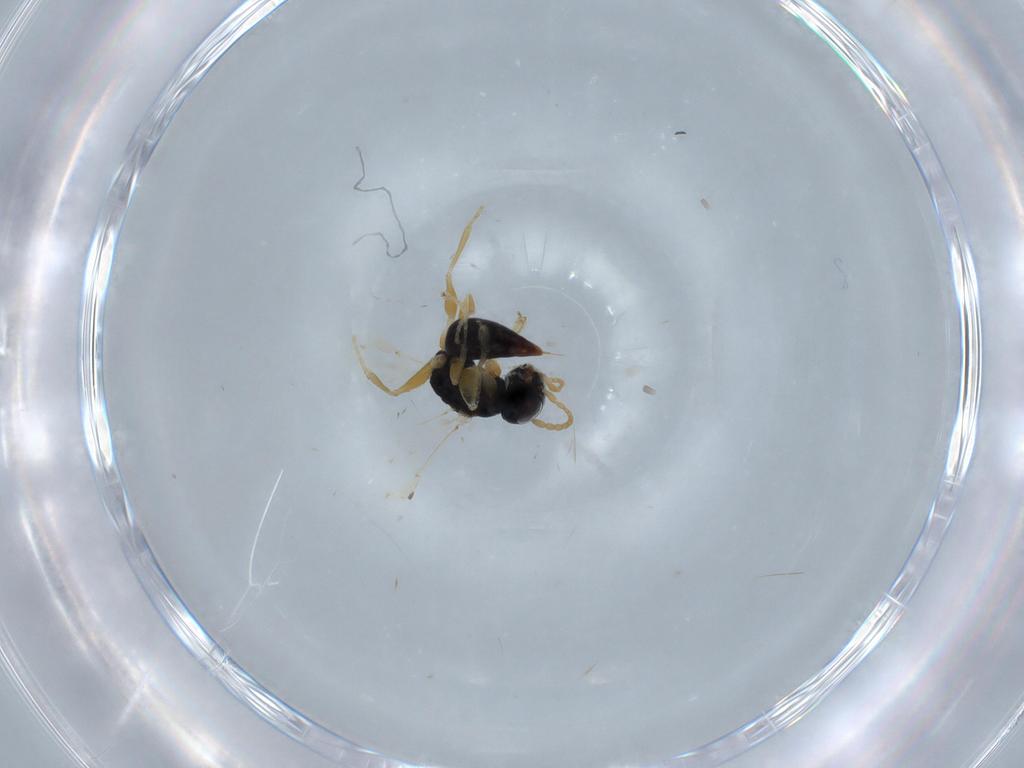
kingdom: Animalia
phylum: Arthropoda
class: Insecta
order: Hymenoptera
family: Dryinidae
